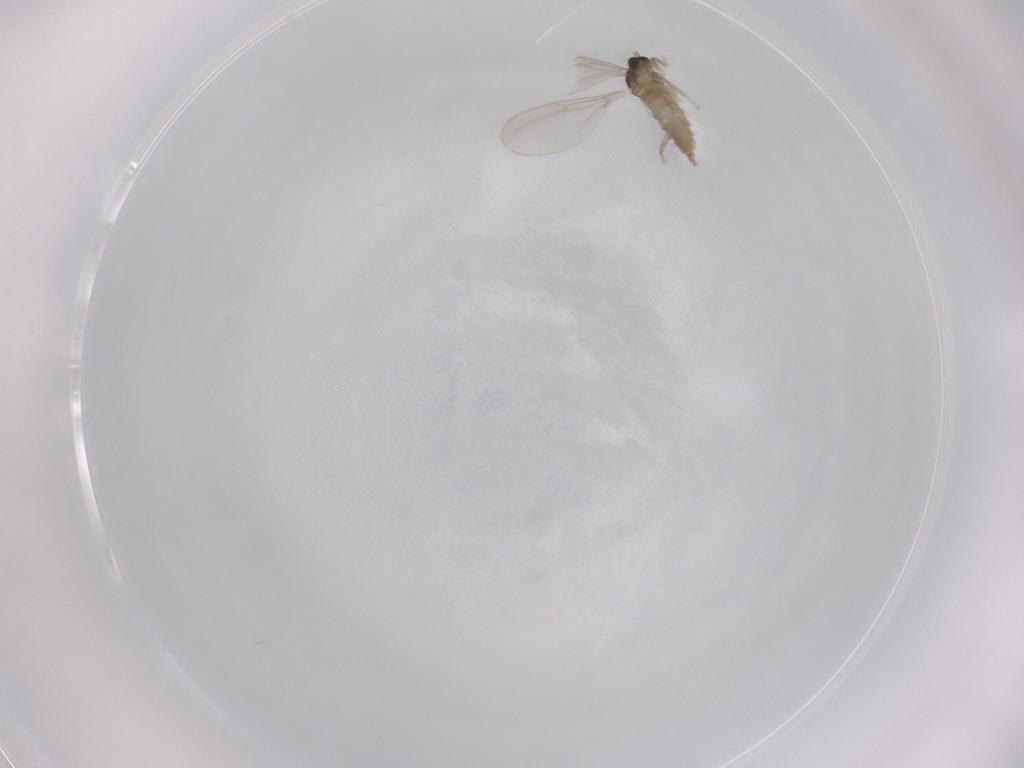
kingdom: Animalia
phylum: Arthropoda
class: Insecta
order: Diptera
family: Cecidomyiidae
